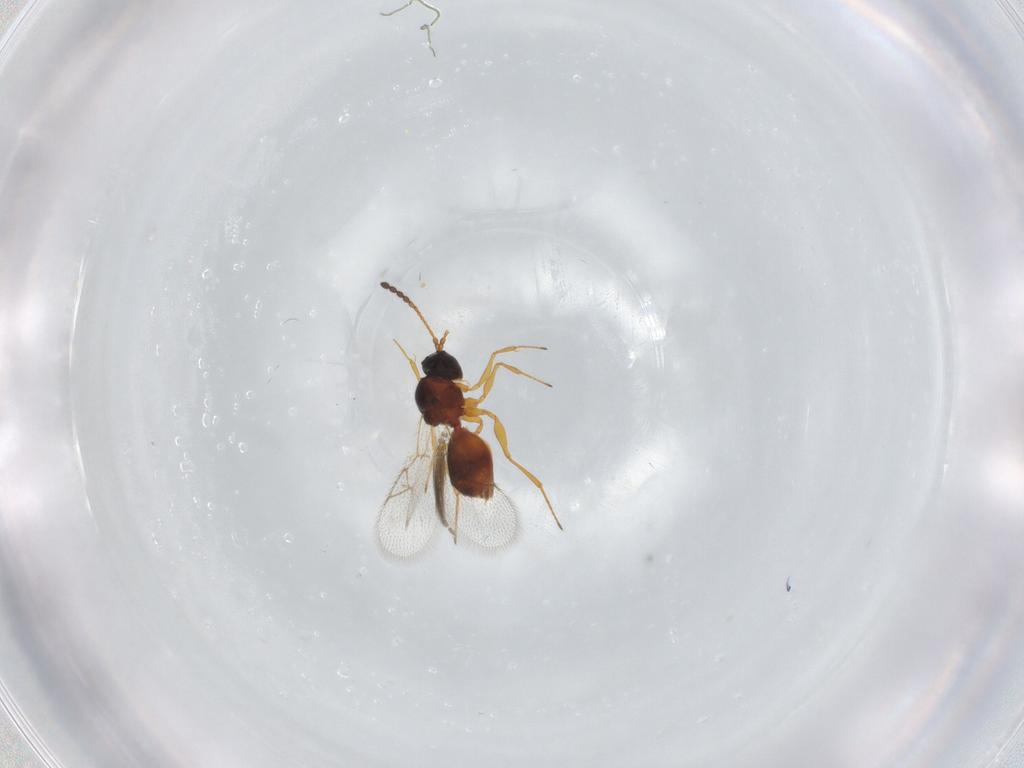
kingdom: Animalia
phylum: Arthropoda
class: Insecta
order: Hymenoptera
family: Figitidae
